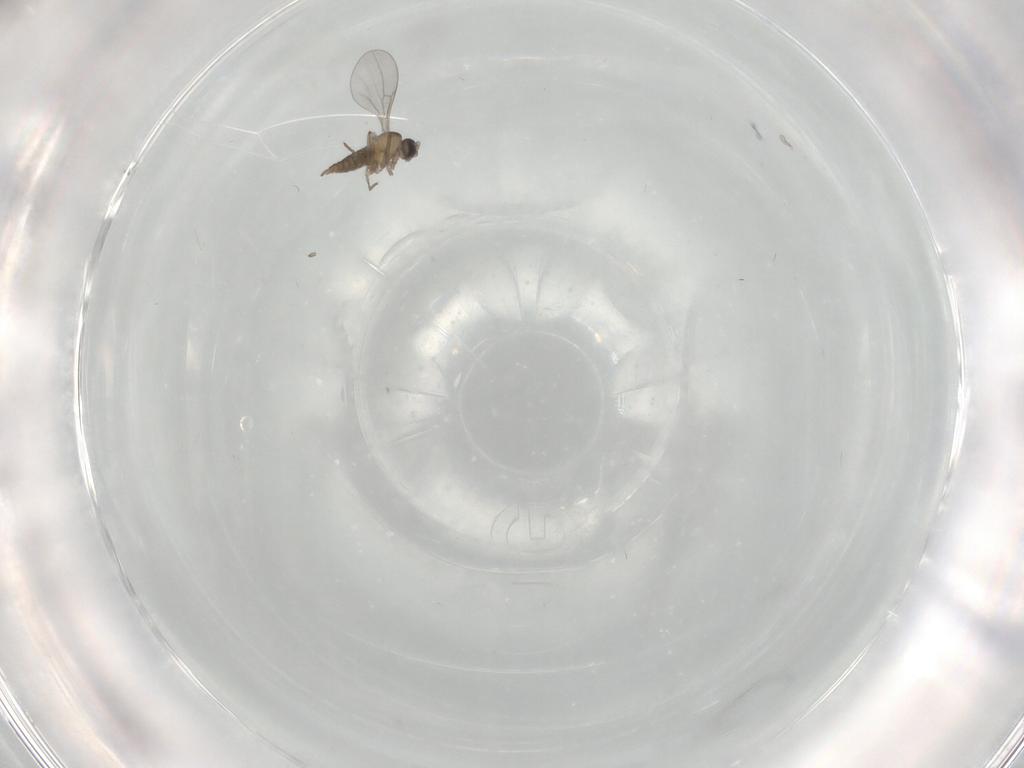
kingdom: Animalia
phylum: Arthropoda
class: Insecta
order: Diptera
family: Cecidomyiidae
